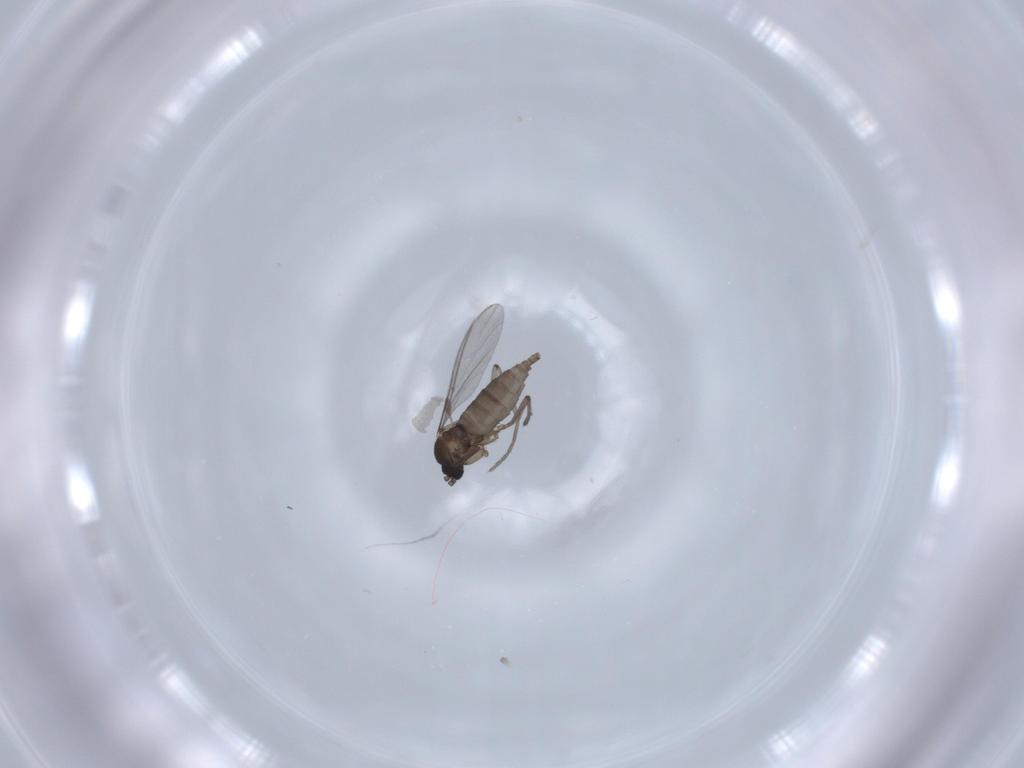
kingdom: Animalia
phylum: Arthropoda
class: Insecta
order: Diptera
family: Sciaridae
